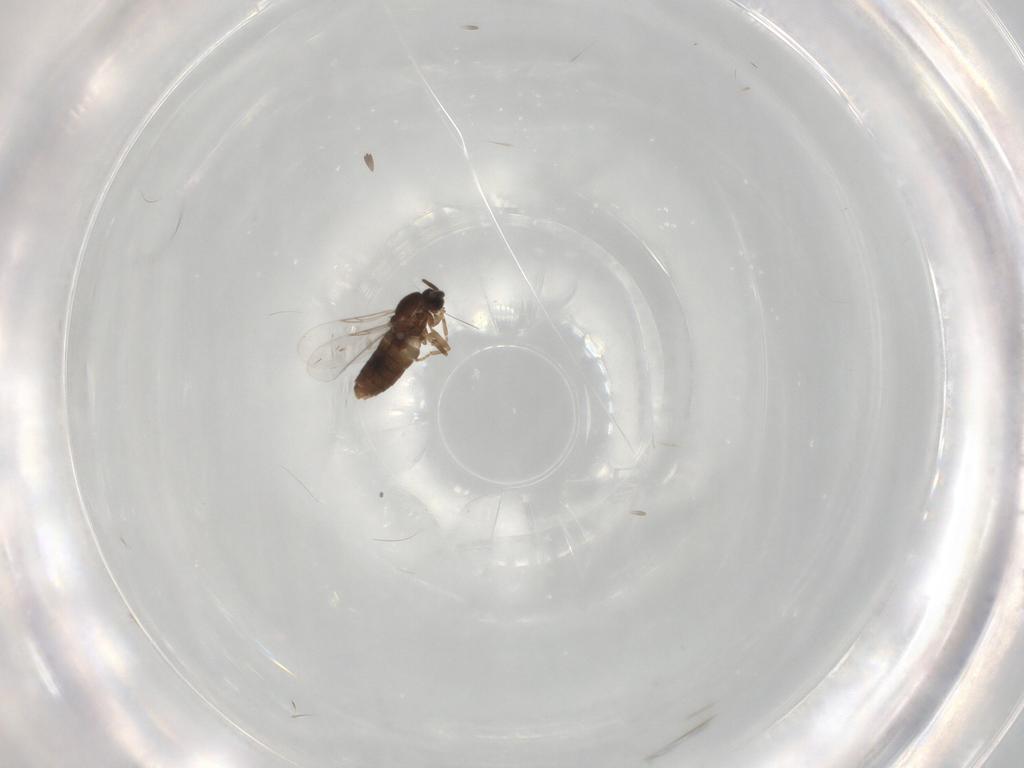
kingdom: Animalia
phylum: Arthropoda
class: Insecta
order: Diptera
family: Scatopsidae
